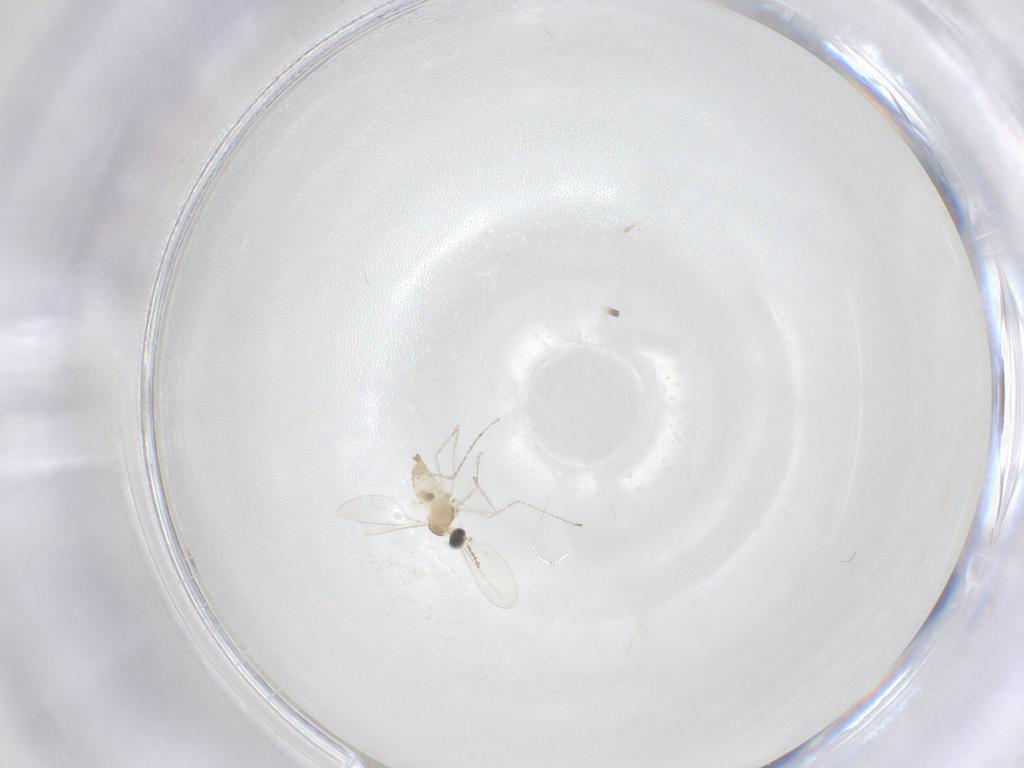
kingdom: Animalia
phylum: Arthropoda
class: Insecta
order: Diptera
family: Cecidomyiidae
